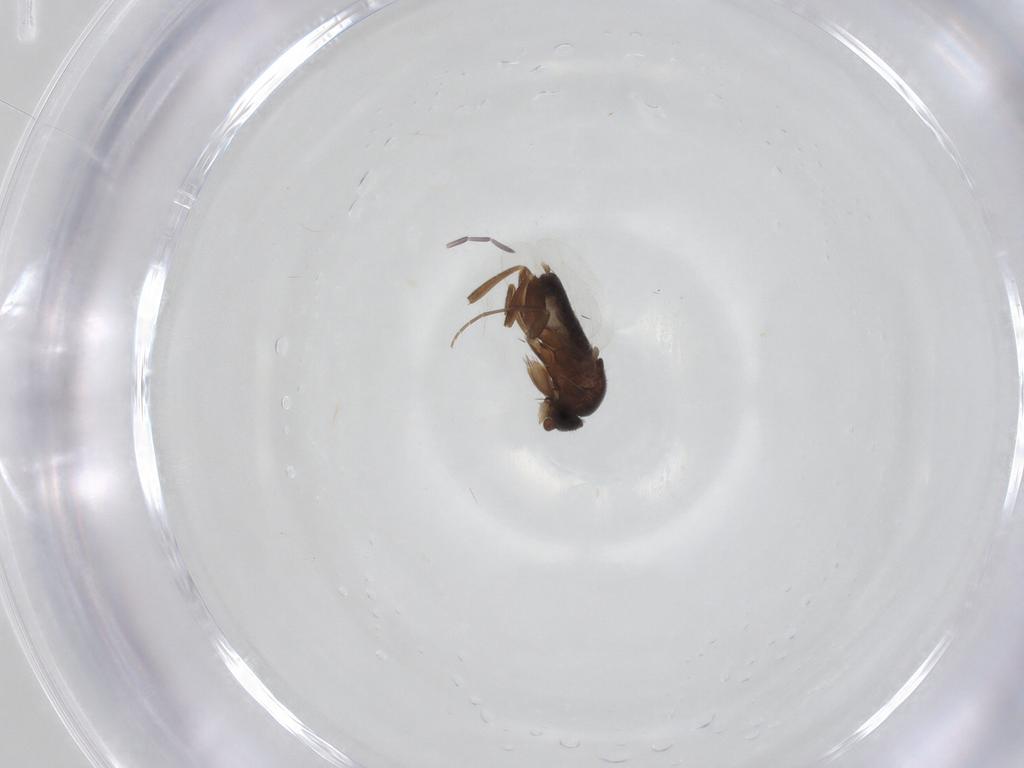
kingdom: Animalia
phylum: Arthropoda
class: Insecta
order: Diptera
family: Phoridae
